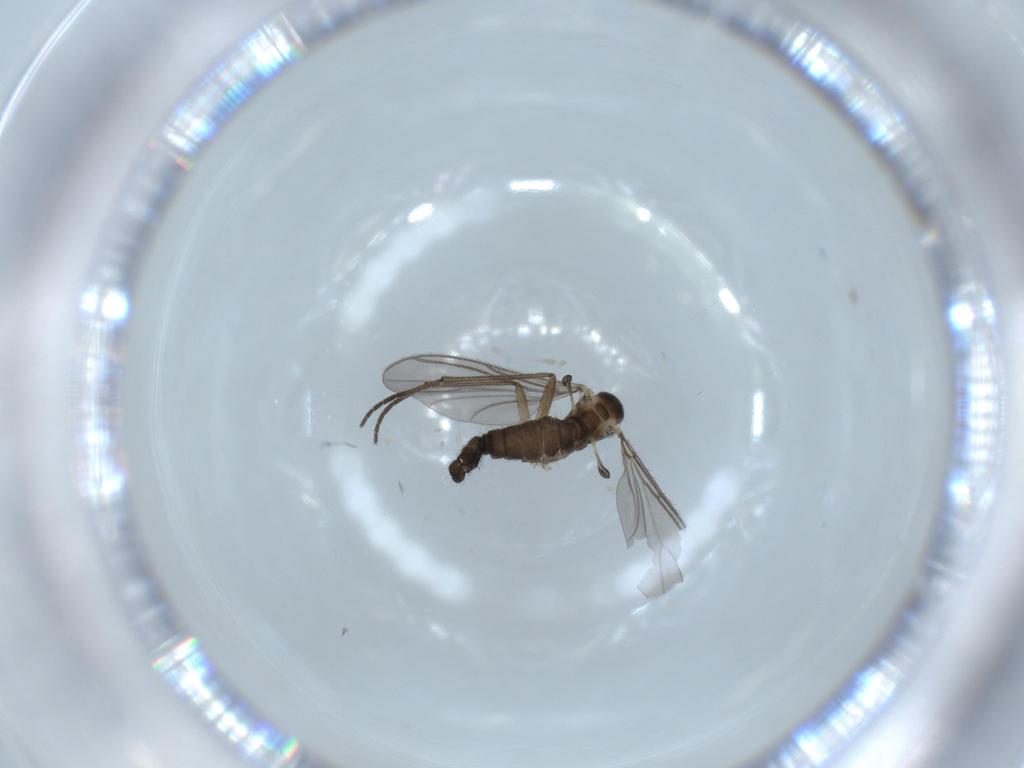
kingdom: Animalia
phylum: Arthropoda
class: Insecta
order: Diptera
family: Sciaridae
